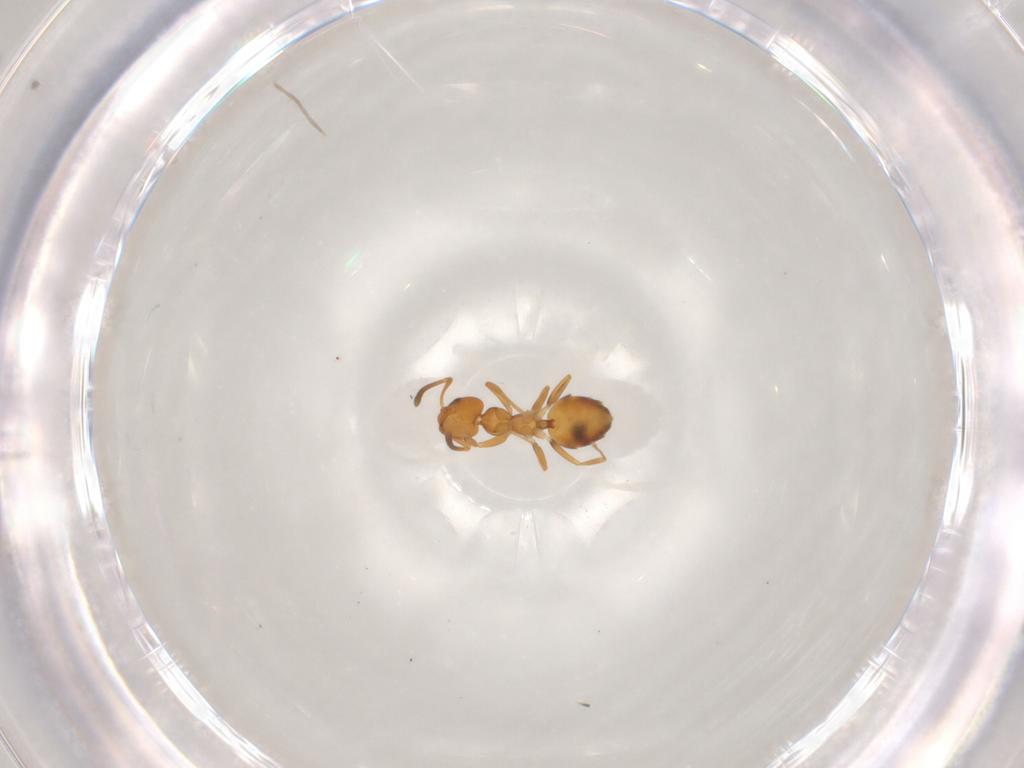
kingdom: Animalia
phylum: Arthropoda
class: Insecta
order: Hymenoptera
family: Formicidae
